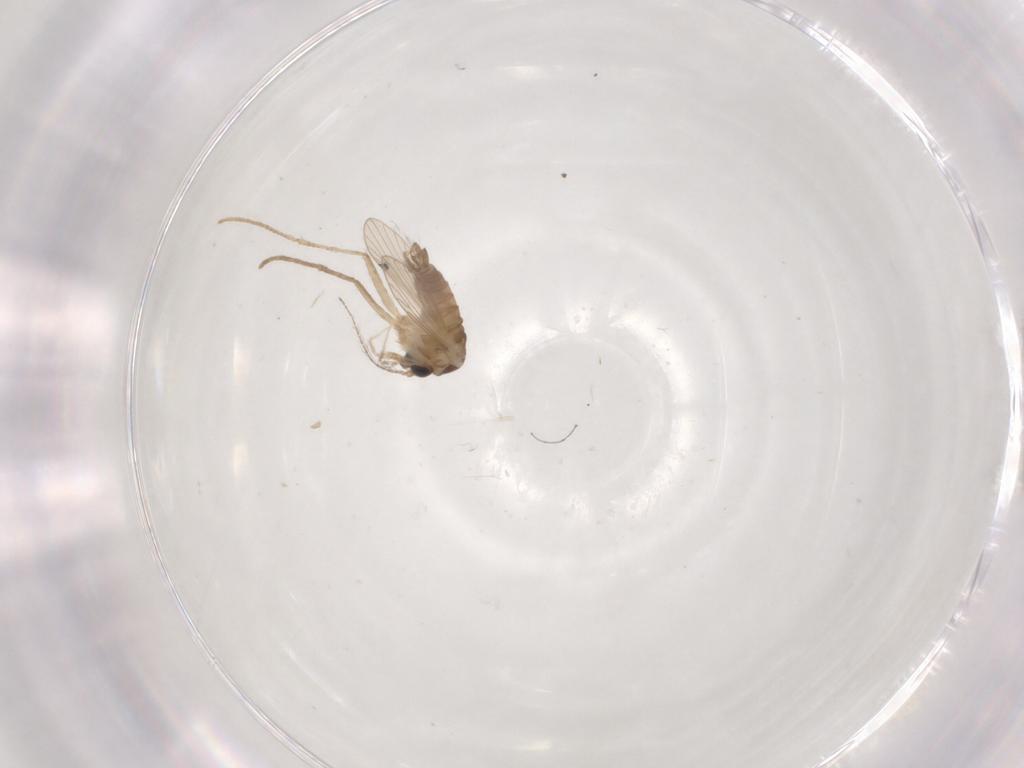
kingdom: Animalia
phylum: Arthropoda
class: Insecta
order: Diptera
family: Psychodidae
